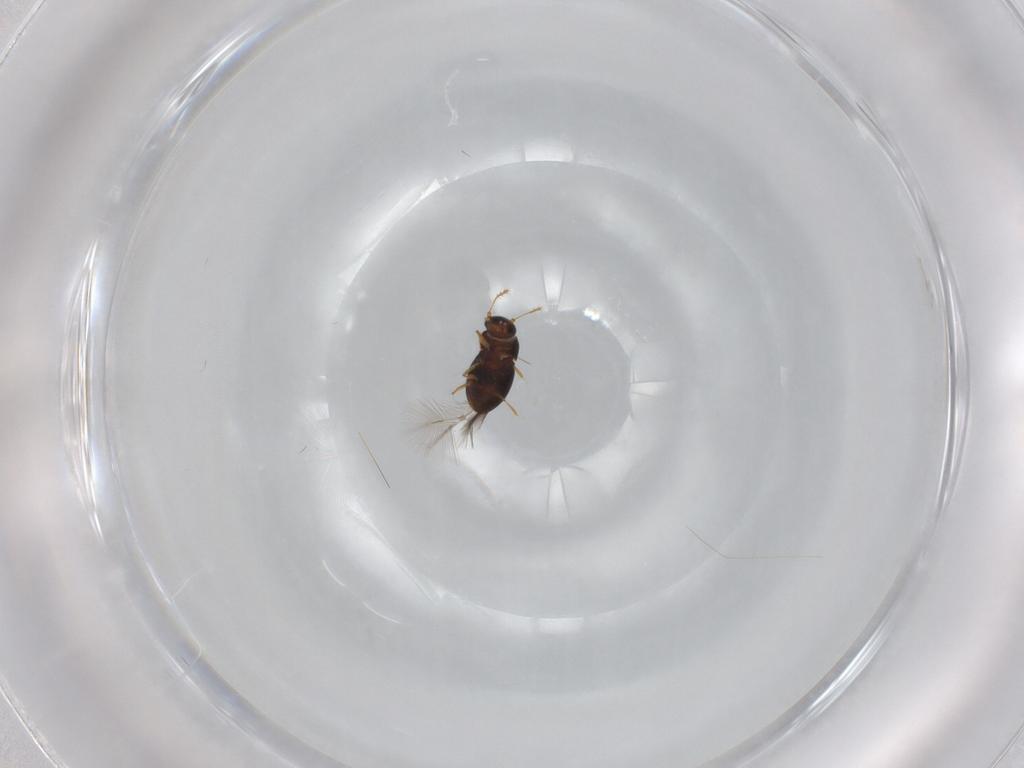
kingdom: Animalia
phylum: Arthropoda
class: Insecta
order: Coleoptera
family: Ptiliidae
